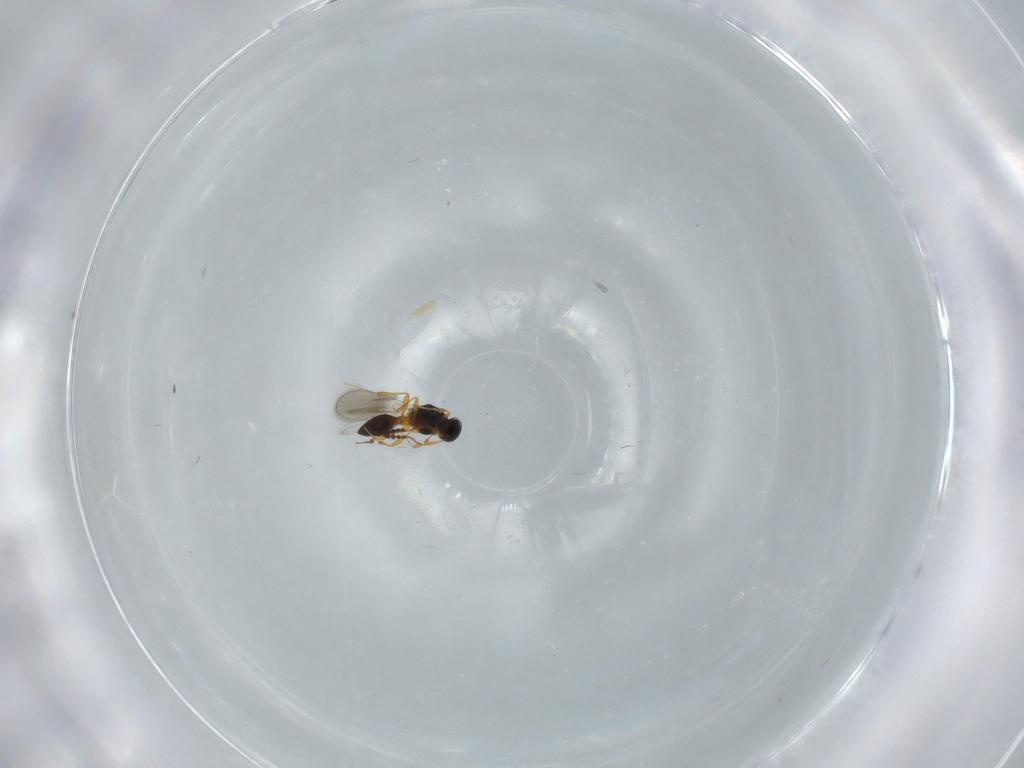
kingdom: Animalia
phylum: Arthropoda
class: Insecta
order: Hymenoptera
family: Platygastridae
